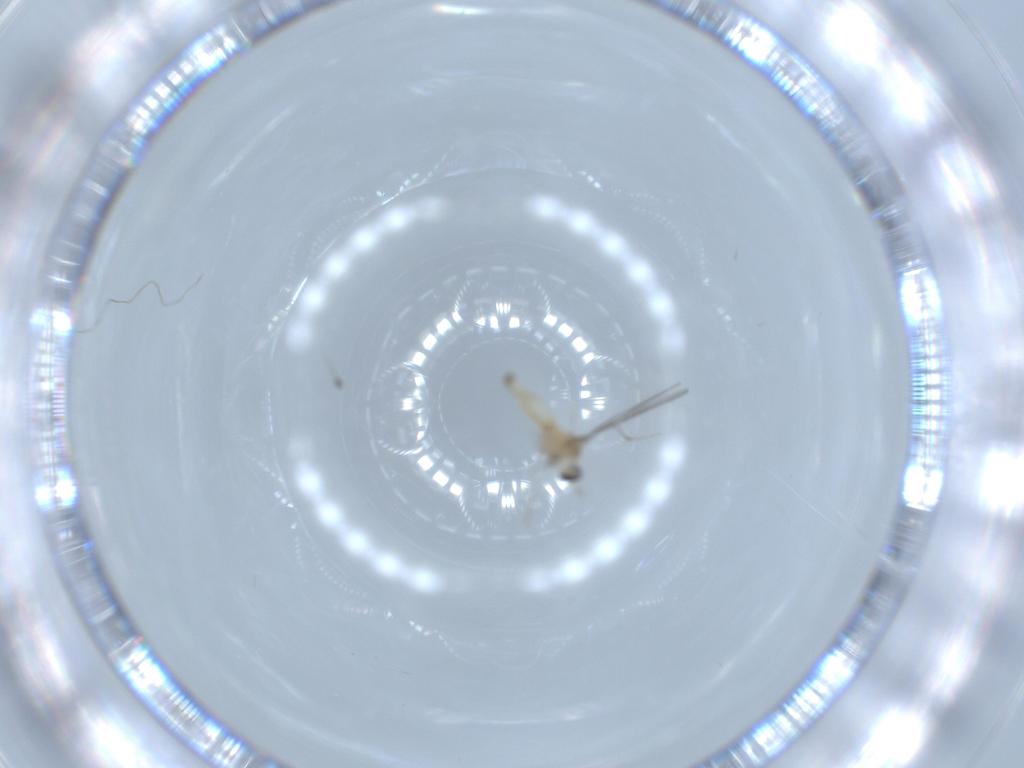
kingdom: Animalia
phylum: Arthropoda
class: Insecta
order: Diptera
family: Cecidomyiidae
